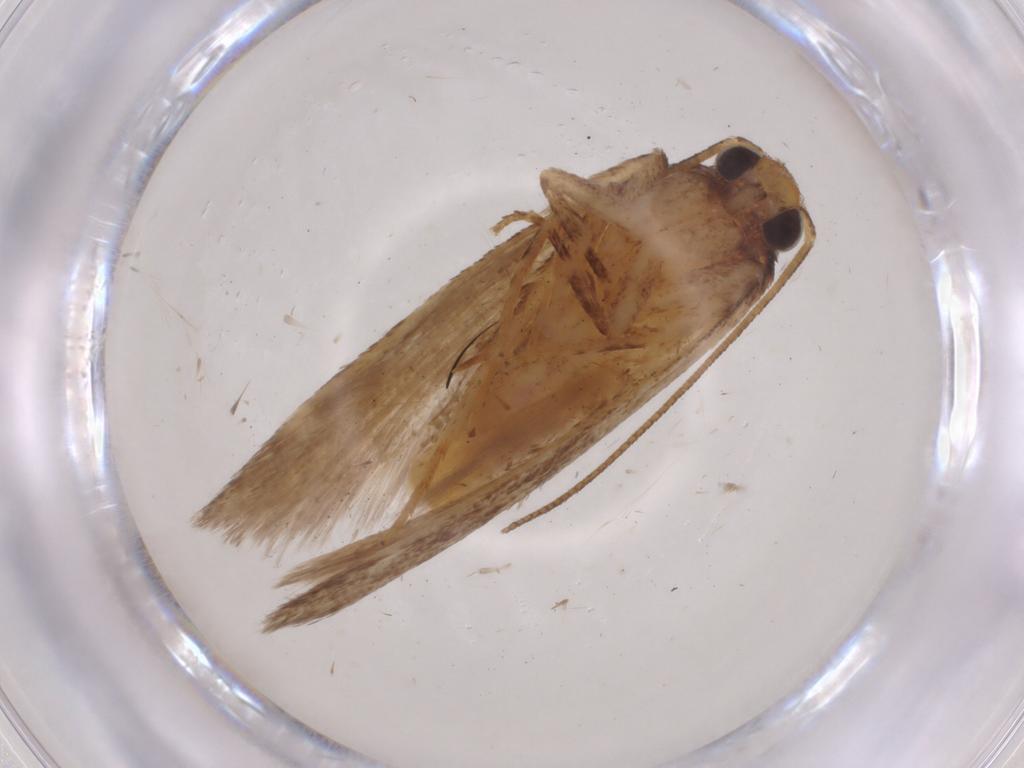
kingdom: Animalia
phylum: Arthropoda
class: Insecta
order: Lepidoptera
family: Gelechiidae
